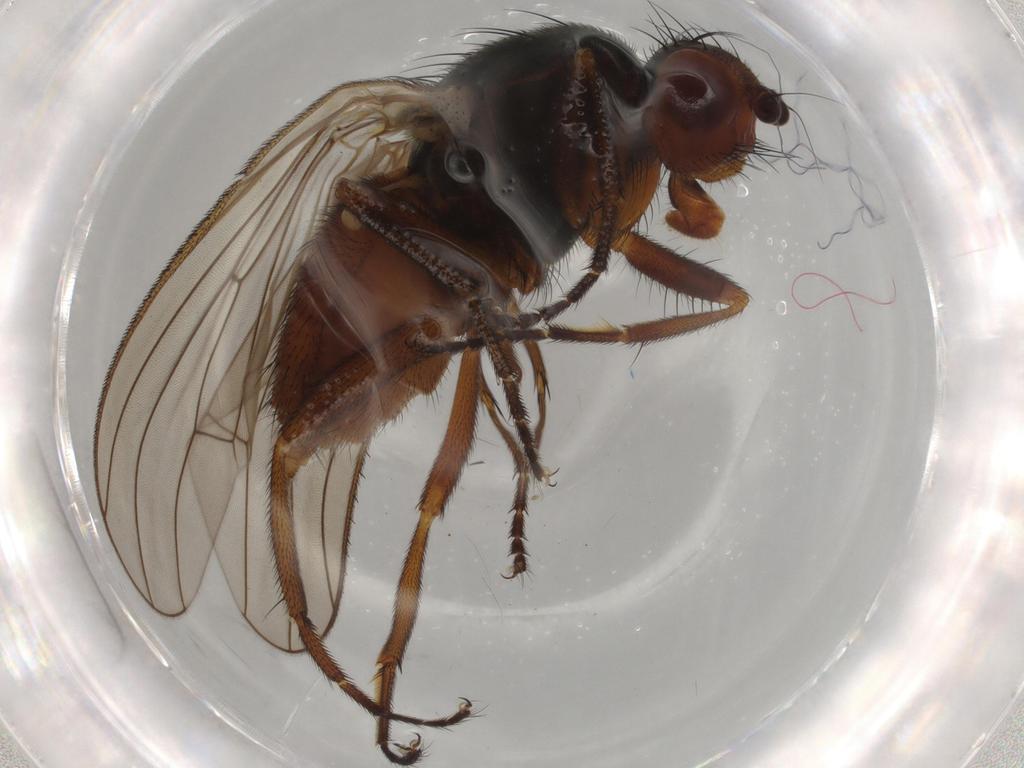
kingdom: Animalia
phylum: Arthropoda
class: Insecta
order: Diptera
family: Heleomyzidae
